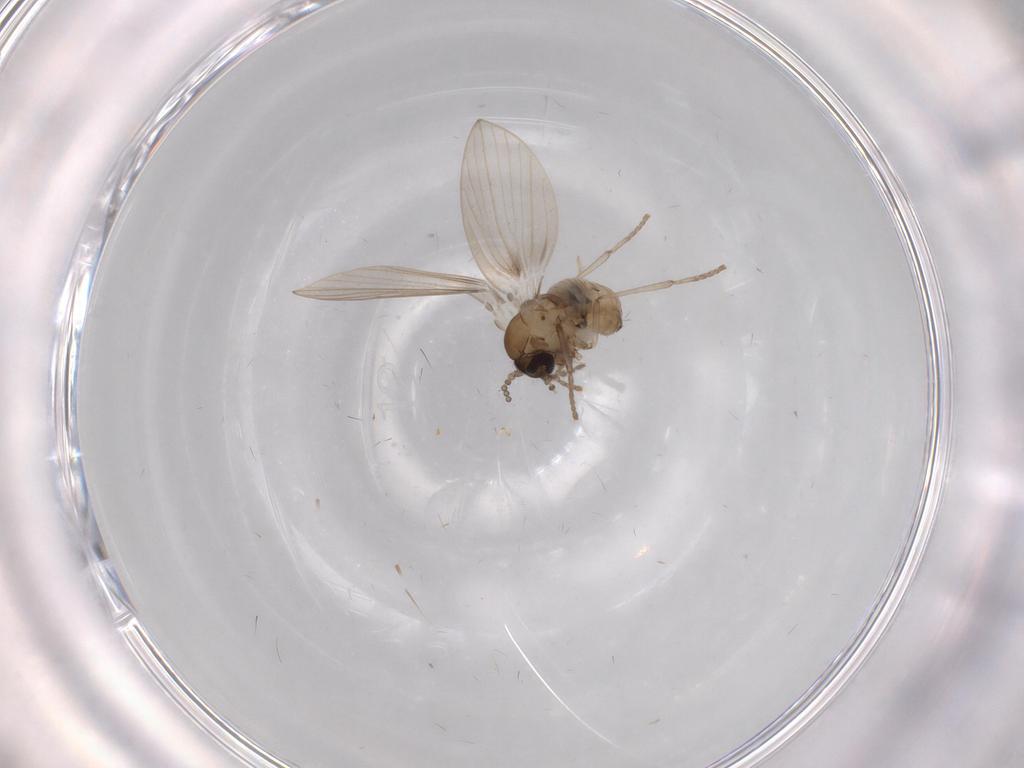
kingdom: Animalia
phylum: Arthropoda
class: Insecta
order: Diptera
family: Psychodidae
